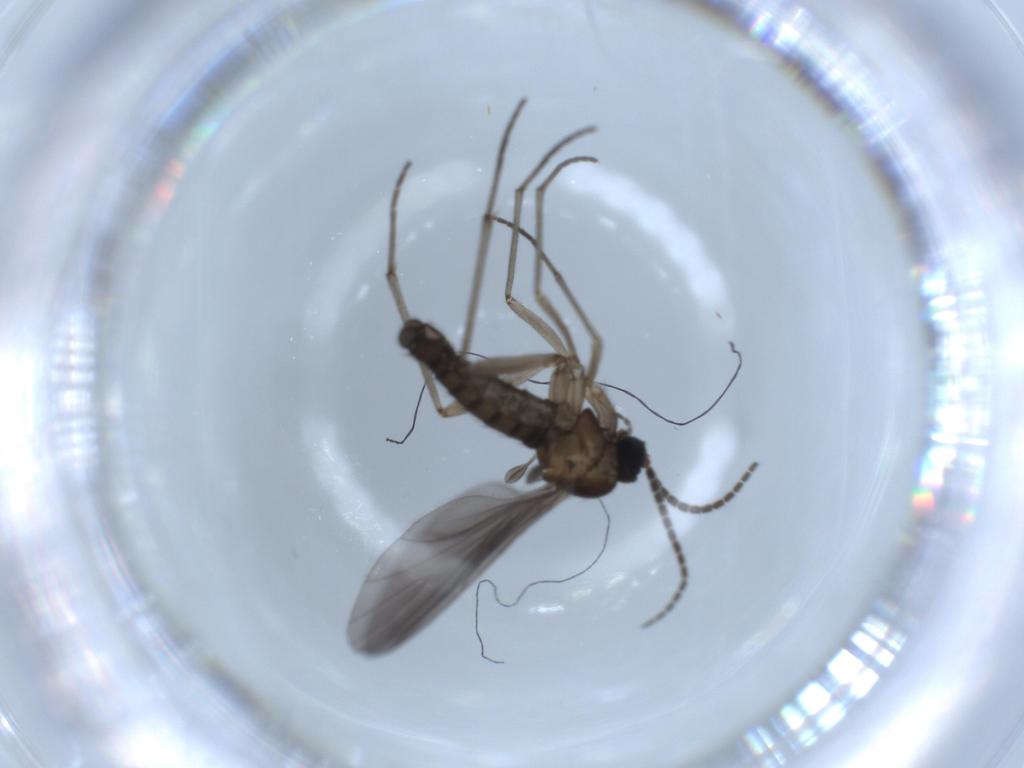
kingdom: Animalia
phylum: Arthropoda
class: Insecta
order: Diptera
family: Sciaridae
